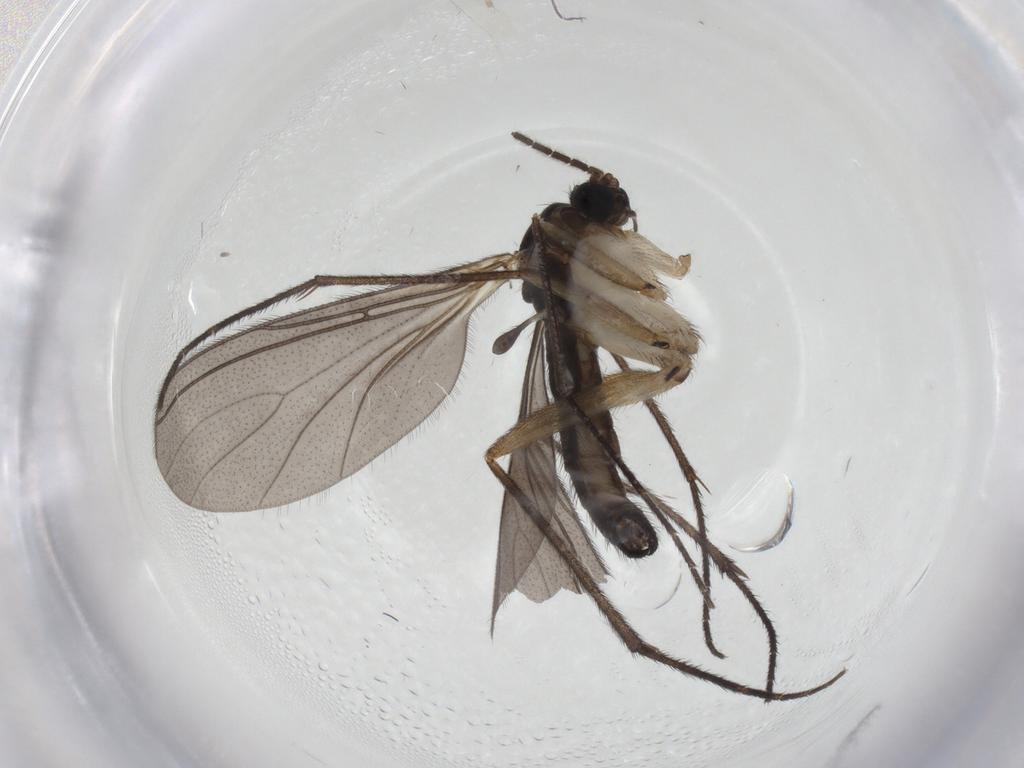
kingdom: Animalia
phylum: Arthropoda
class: Insecta
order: Diptera
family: Sciaridae
